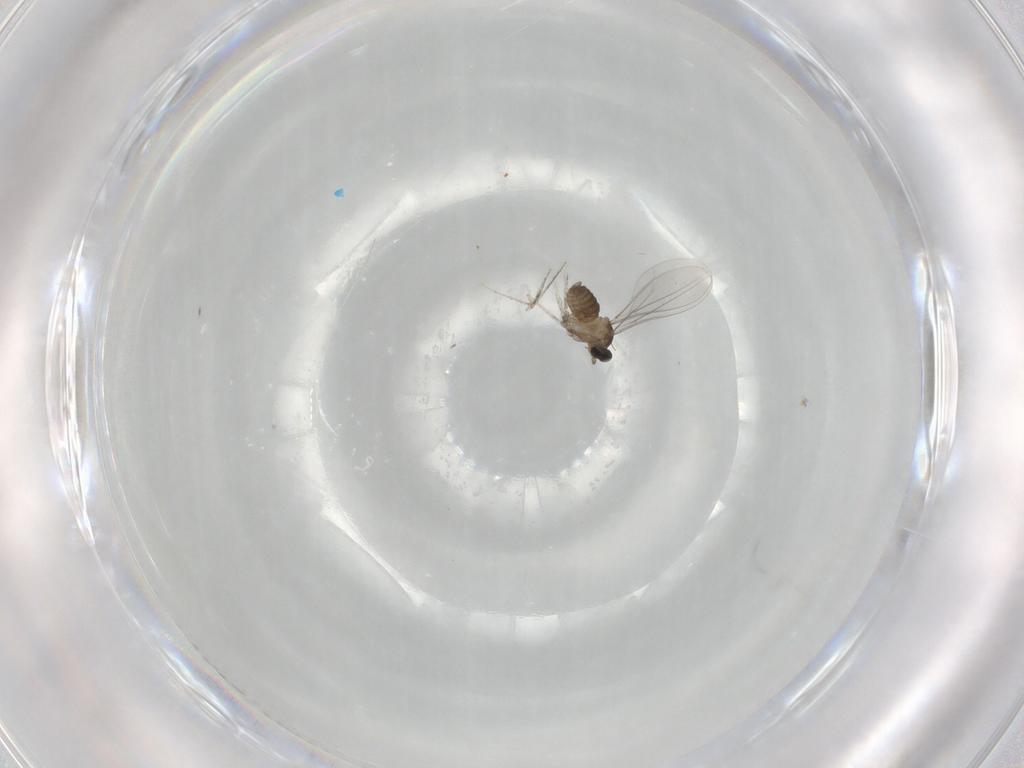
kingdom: Animalia
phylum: Arthropoda
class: Insecta
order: Diptera
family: Cecidomyiidae
